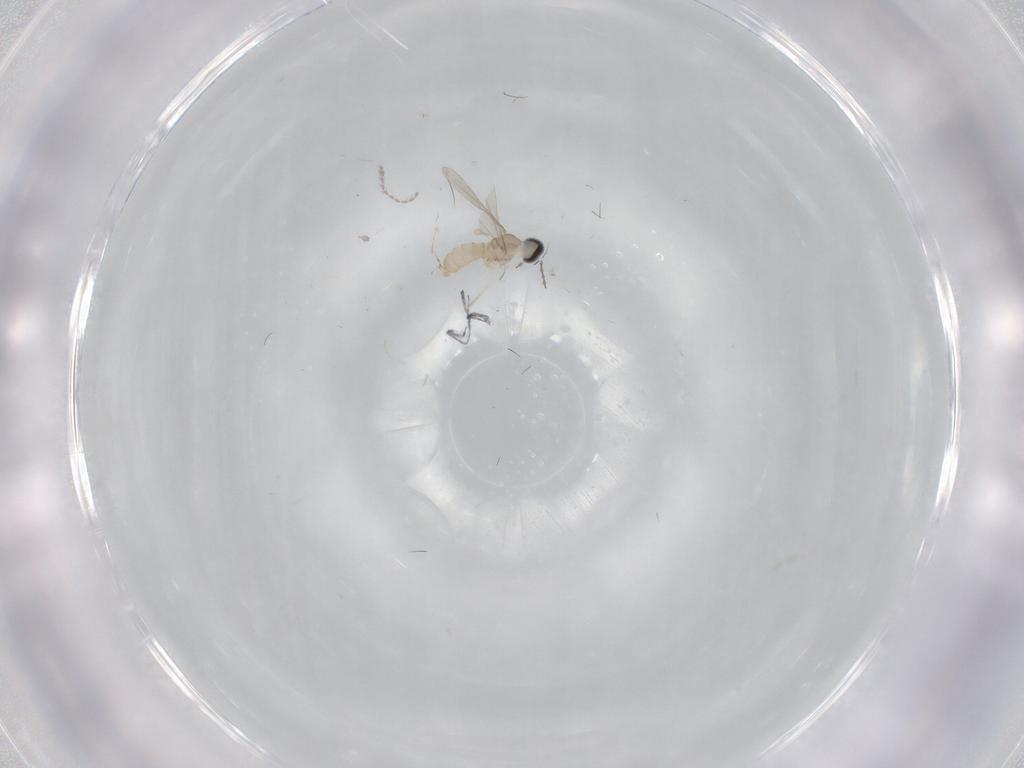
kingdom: Animalia
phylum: Arthropoda
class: Insecta
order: Diptera
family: Cecidomyiidae
